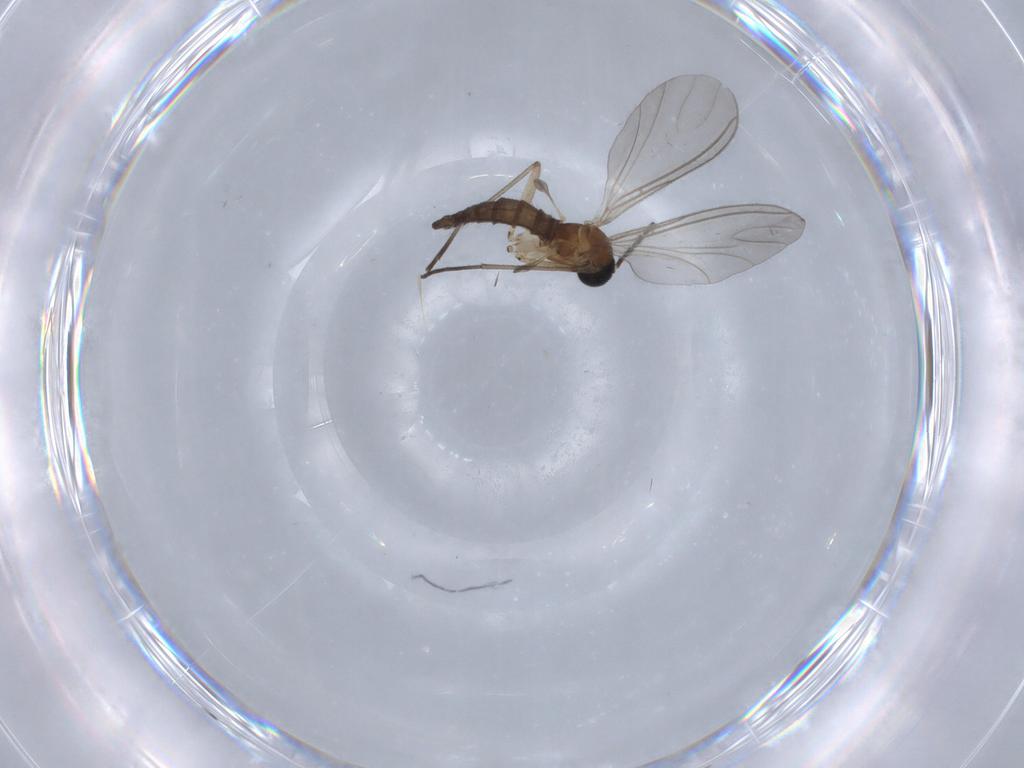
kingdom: Animalia
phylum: Arthropoda
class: Insecta
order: Diptera
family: Sciaridae
